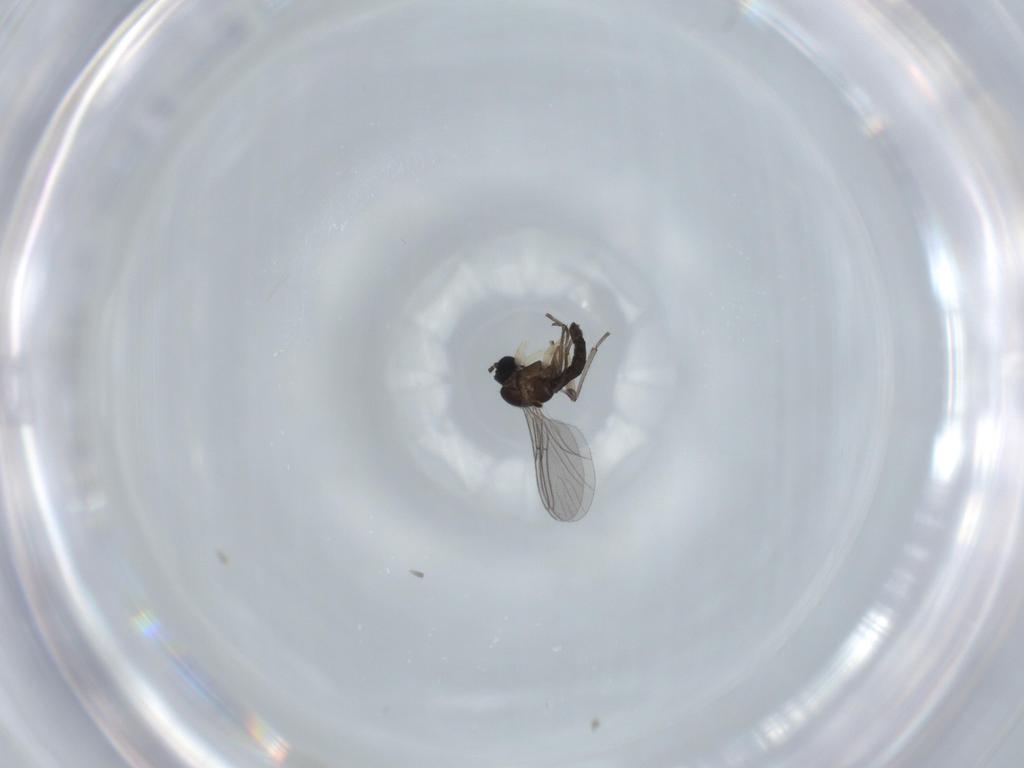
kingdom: Animalia
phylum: Arthropoda
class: Insecta
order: Diptera
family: Sciaridae
